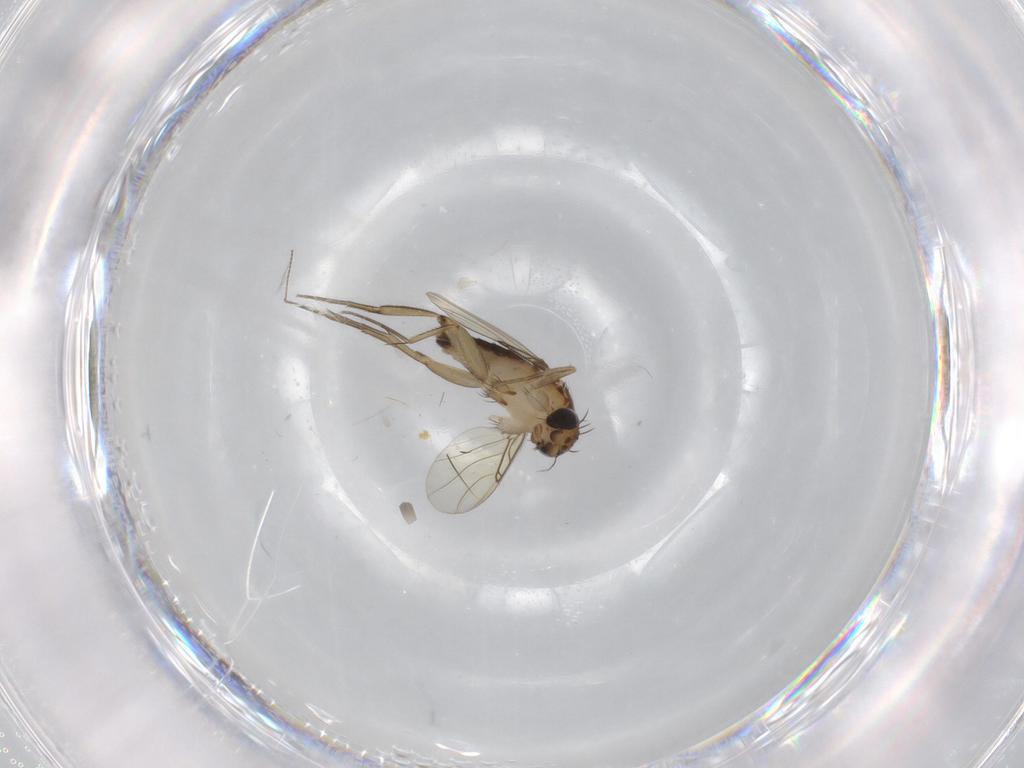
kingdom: Animalia
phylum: Arthropoda
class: Insecta
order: Diptera
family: Phoridae
